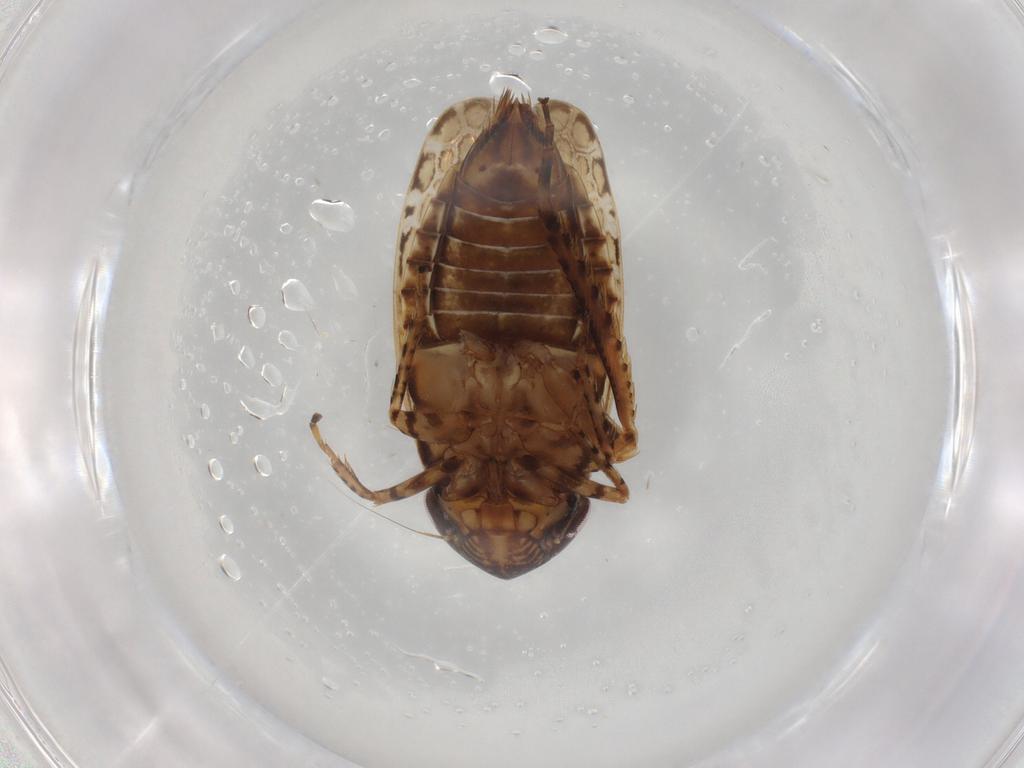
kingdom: Animalia
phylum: Arthropoda
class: Insecta
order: Hemiptera
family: Cicadellidae
